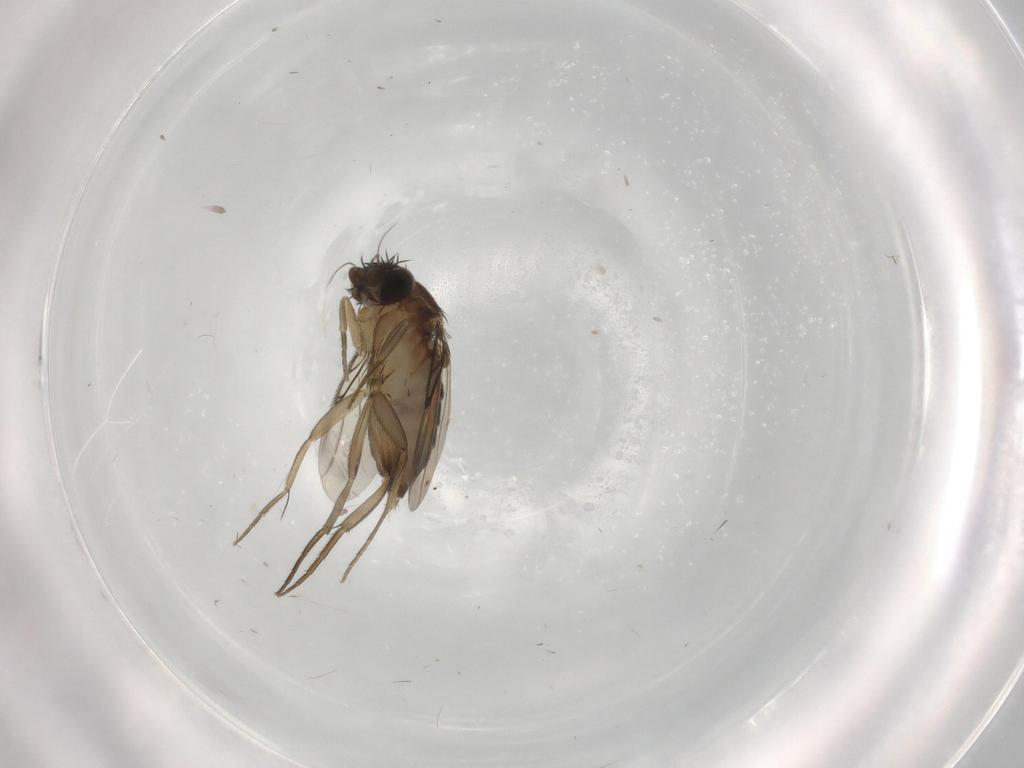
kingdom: Animalia
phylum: Arthropoda
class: Insecta
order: Diptera
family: Phoridae
